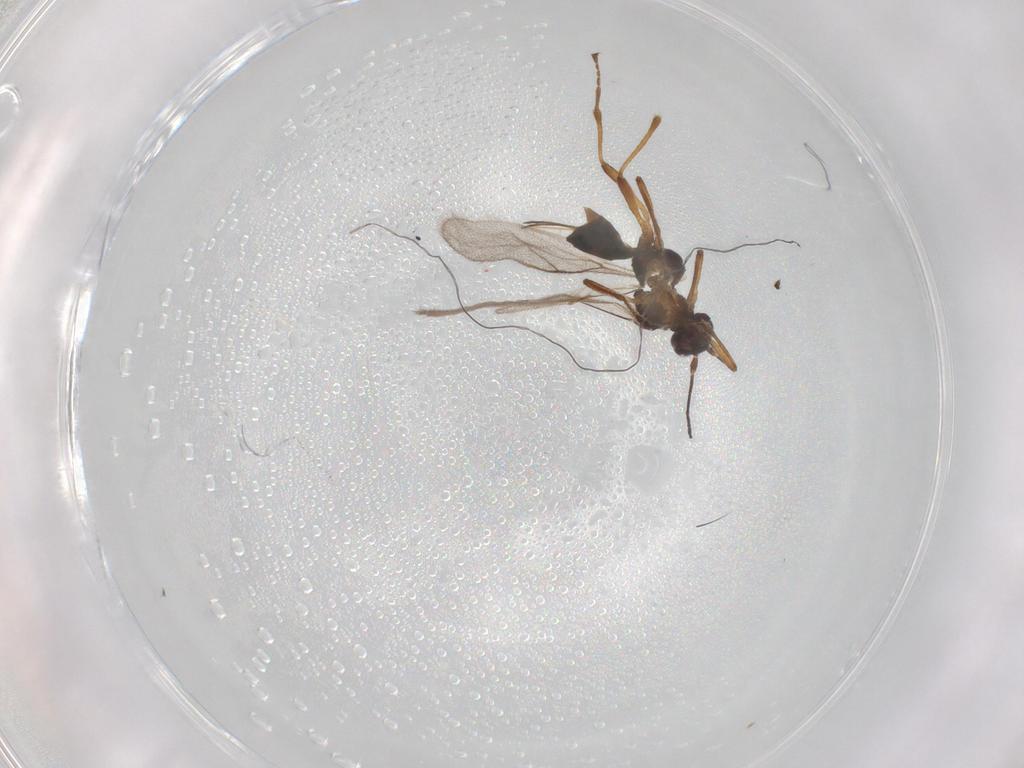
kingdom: Animalia
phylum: Arthropoda
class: Insecta
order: Hymenoptera
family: Braconidae
